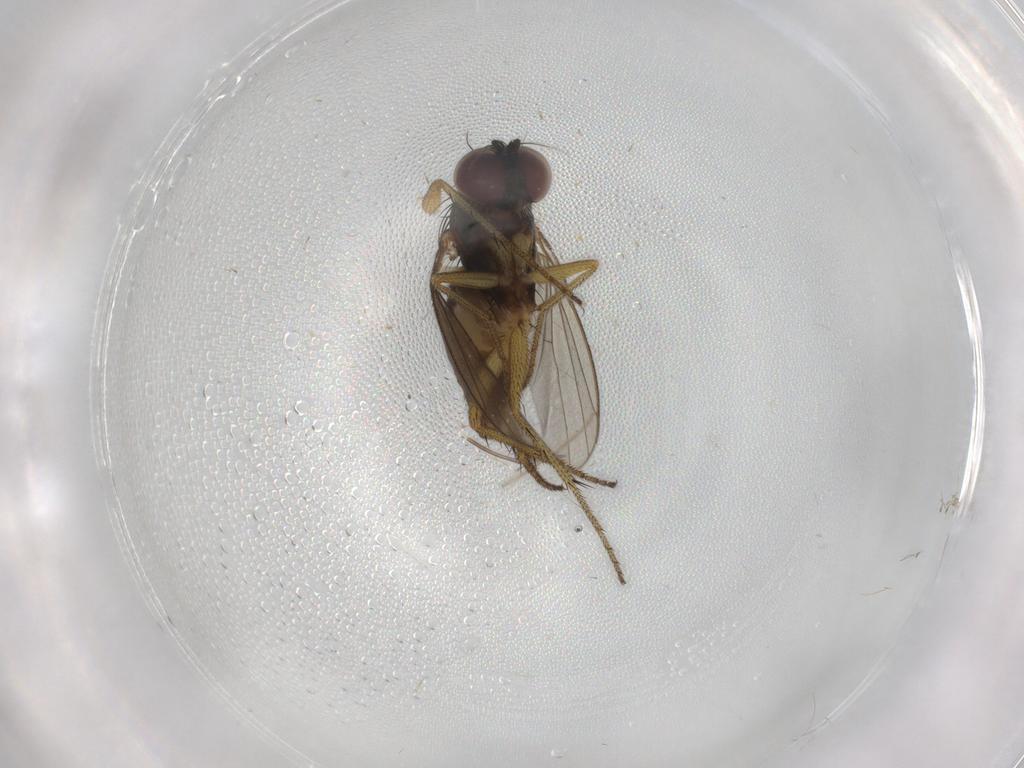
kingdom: Animalia
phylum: Arthropoda
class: Insecta
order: Diptera
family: Dolichopodidae
